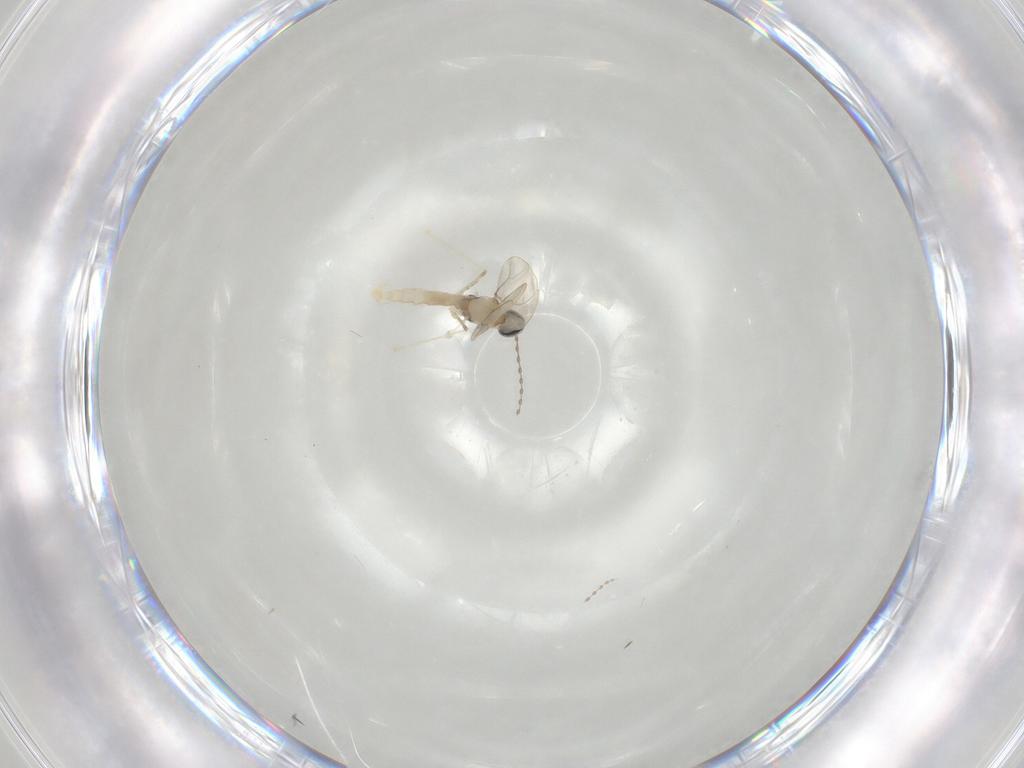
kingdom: Animalia
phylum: Arthropoda
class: Insecta
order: Diptera
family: Cecidomyiidae
